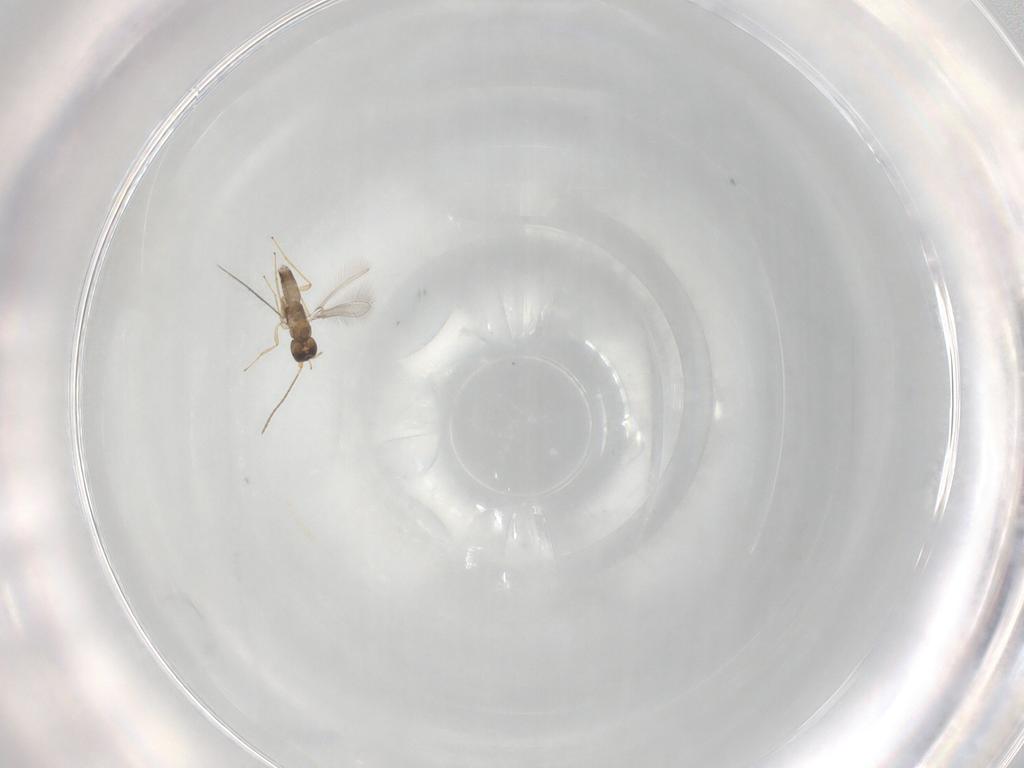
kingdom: Animalia
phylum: Arthropoda
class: Insecta
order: Hymenoptera
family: Mymaridae
